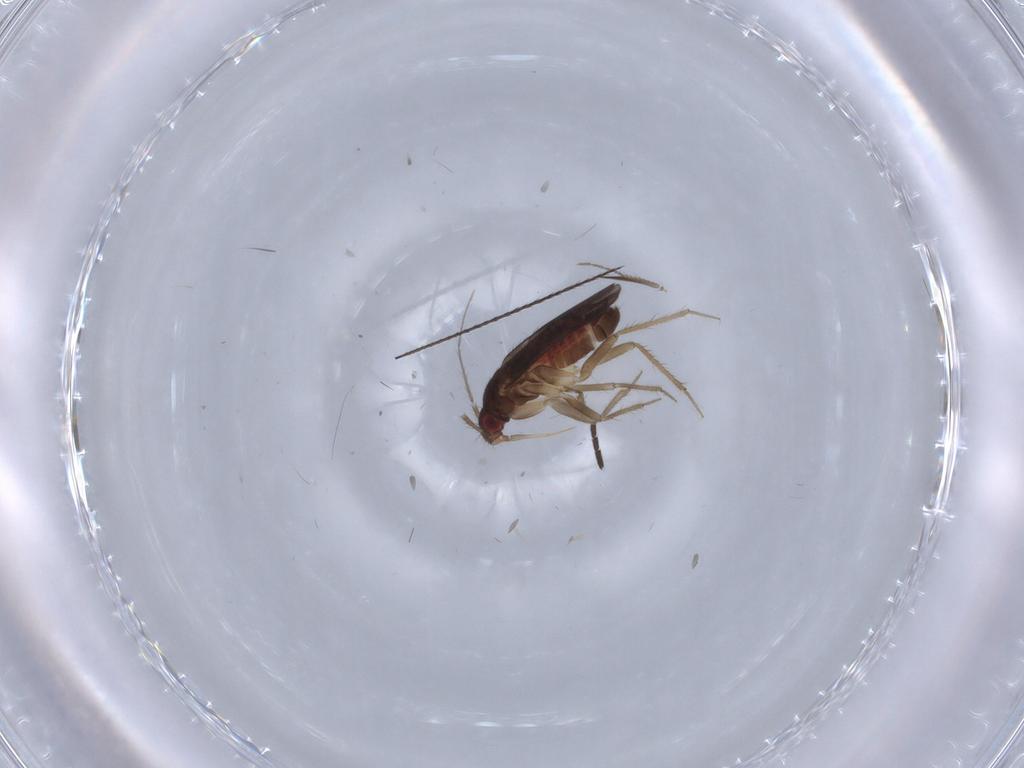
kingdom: Animalia
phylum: Arthropoda
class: Insecta
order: Hemiptera
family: Ceratocombidae
